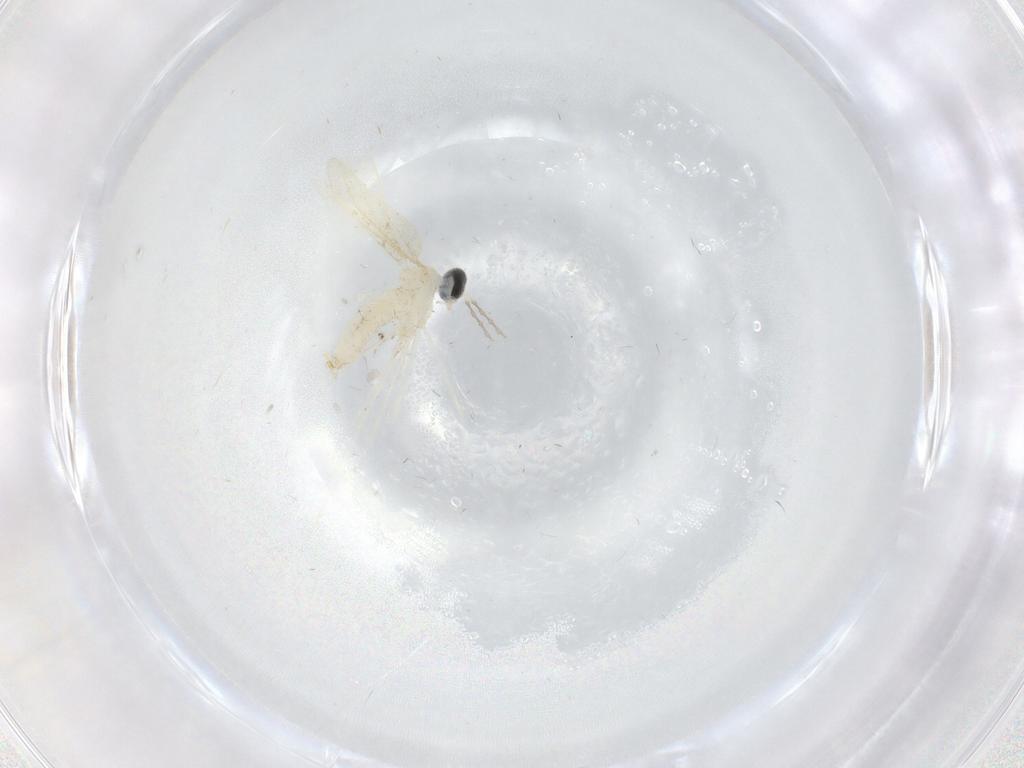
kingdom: Animalia
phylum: Arthropoda
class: Insecta
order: Diptera
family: Cecidomyiidae
